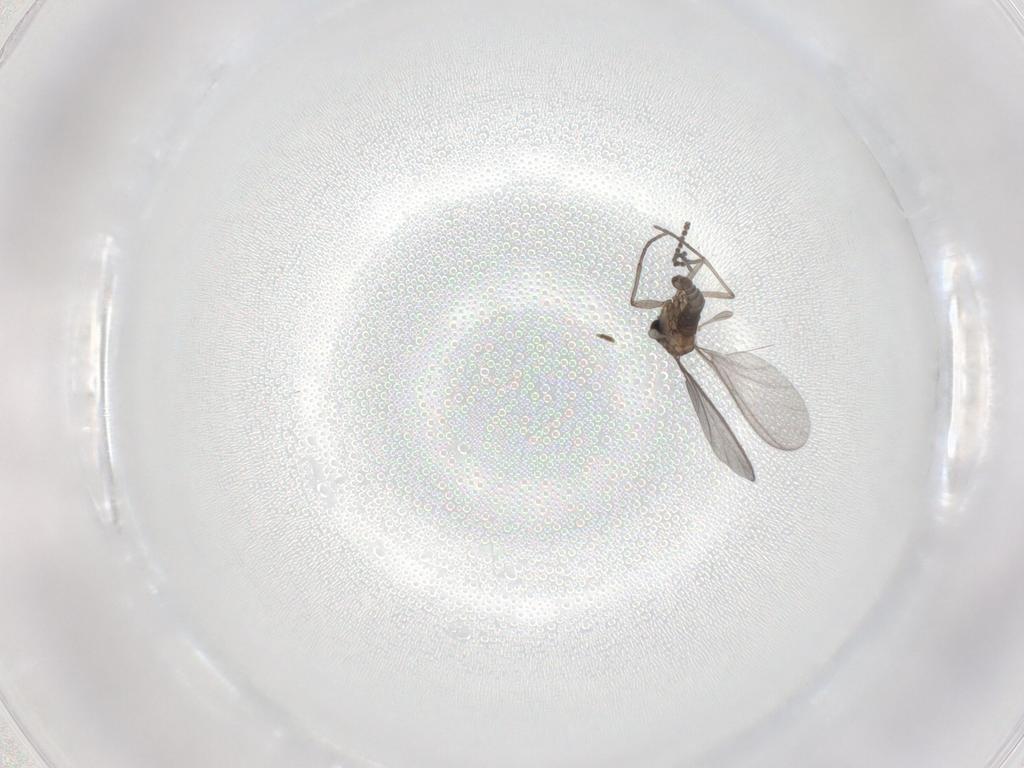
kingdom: Animalia
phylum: Arthropoda
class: Insecta
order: Diptera
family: Sciaridae
